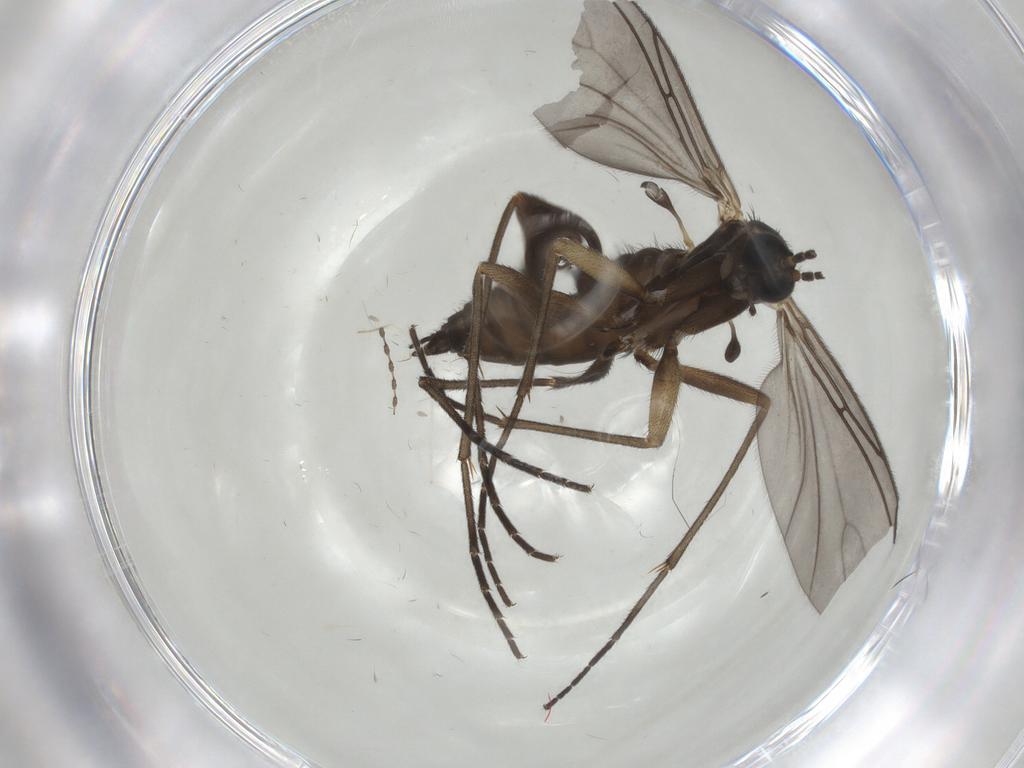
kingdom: Animalia
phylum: Arthropoda
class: Insecta
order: Diptera
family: Sciaridae
